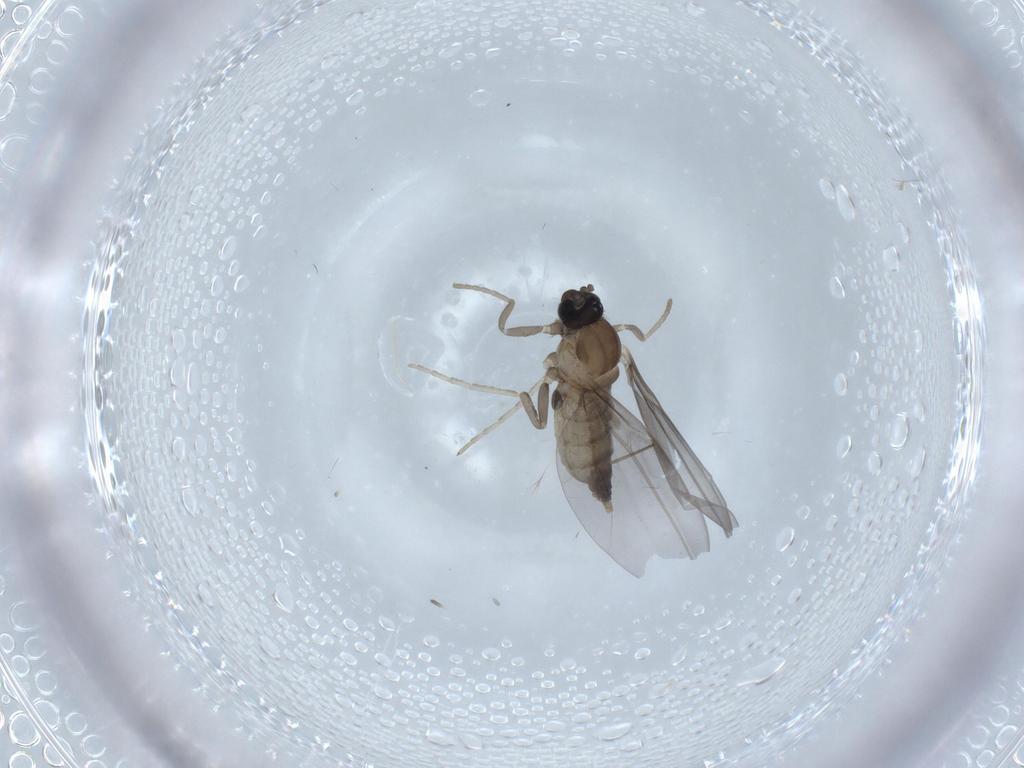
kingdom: Animalia
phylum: Arthropoda
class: Insecta
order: Diptera
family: Cecidomyiidae
